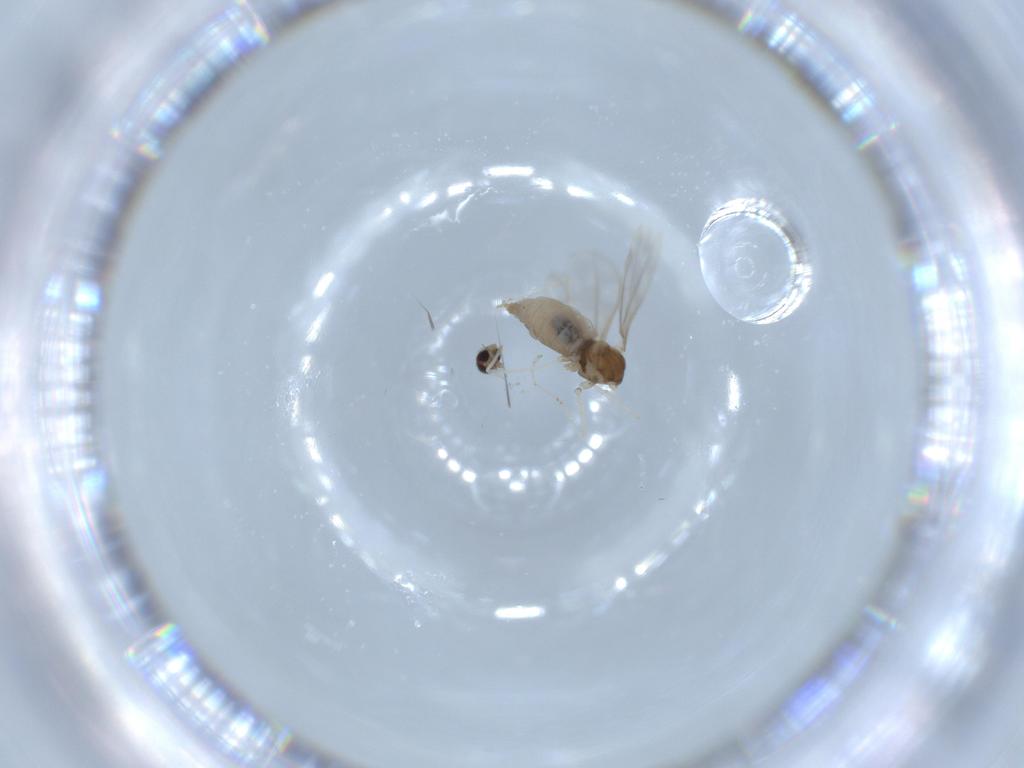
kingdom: Animalia
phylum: Arthropoda
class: Insecta
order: Diptera
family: Cecidomyiidae
